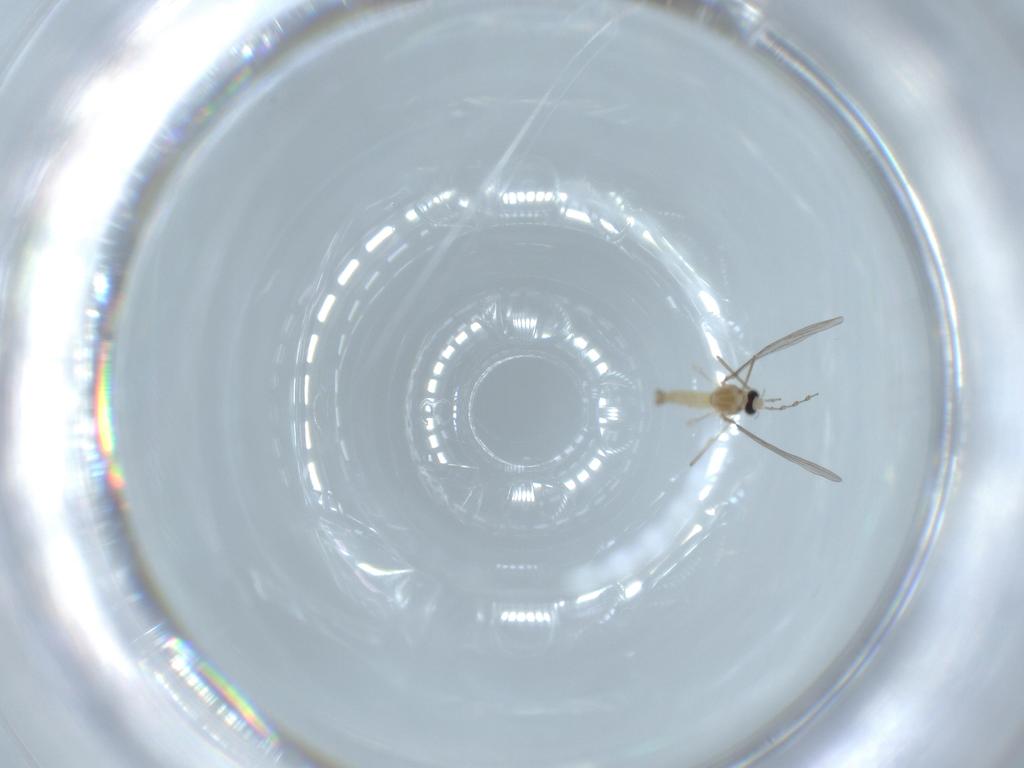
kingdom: Animalia
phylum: Arthropoda
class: Insecta
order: Diptera
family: Cecidomyiidae
